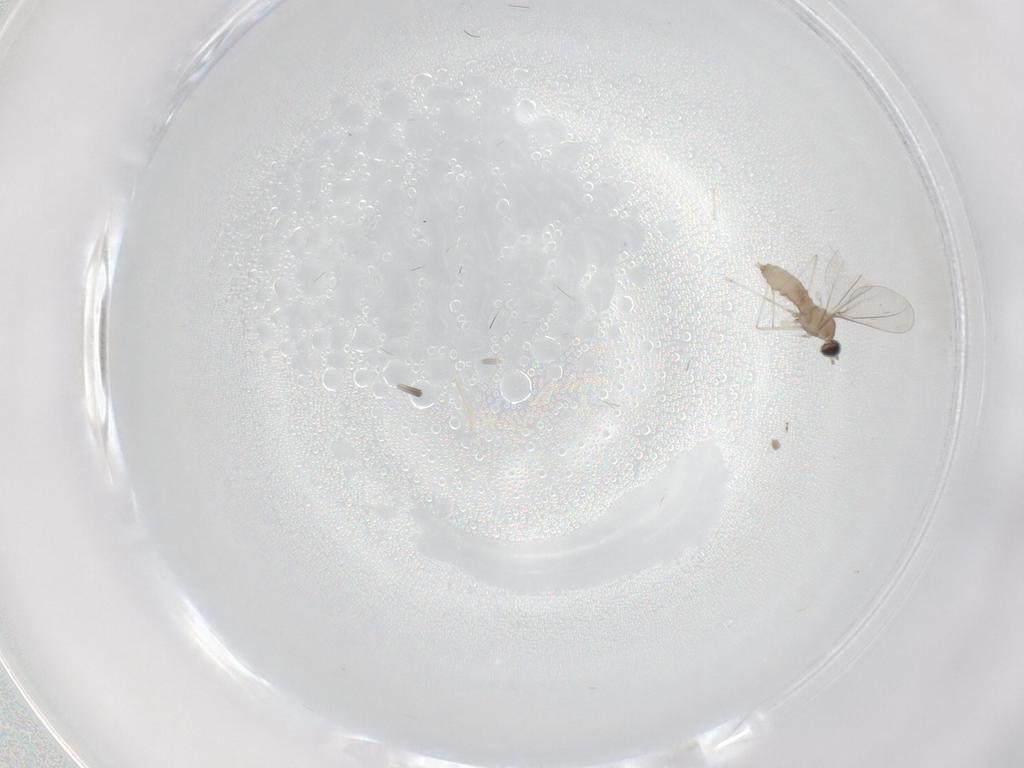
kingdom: Animalia
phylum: Arthropoda
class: Insecta
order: Diptera
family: Cecidomyiidae
